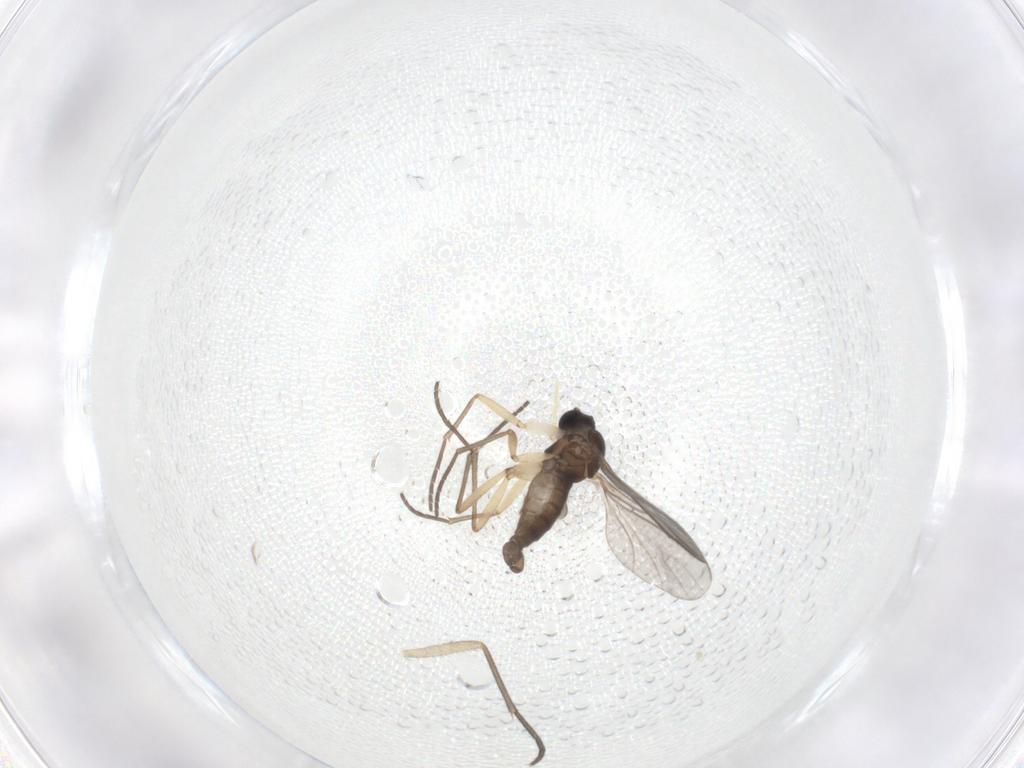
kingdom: Animalia
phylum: Arthropoda
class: Insecta
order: Diptera
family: Sciaridae
